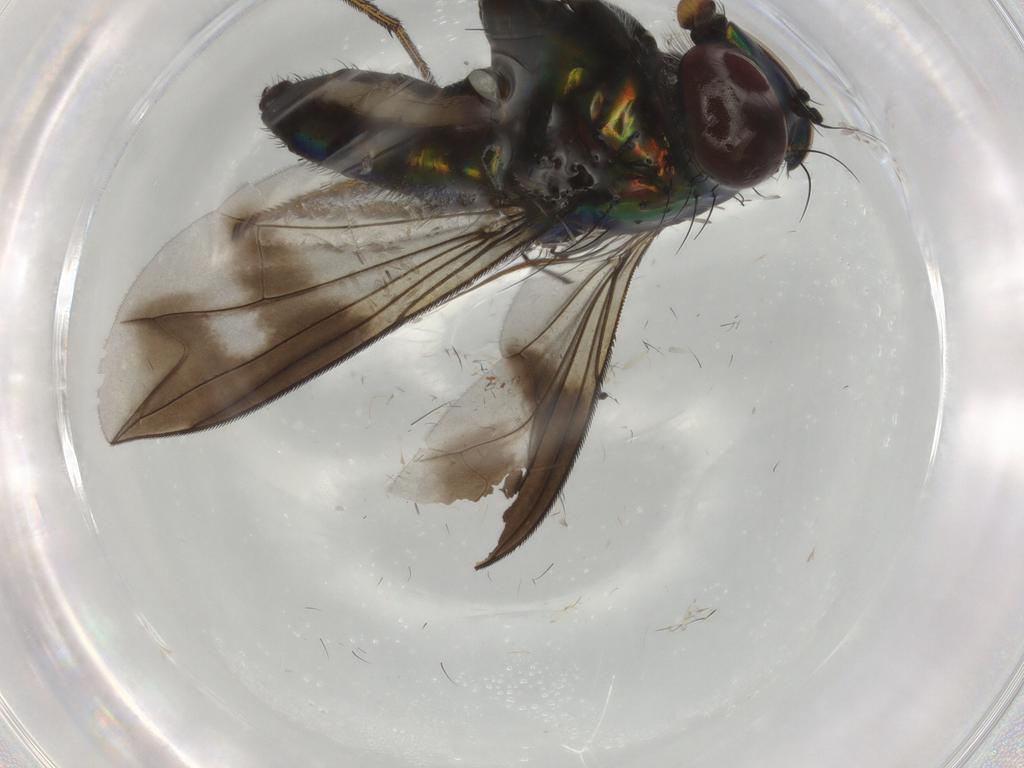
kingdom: Animalia
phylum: Arthropoda
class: Insecta
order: Diptera
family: Dolichopodidae
